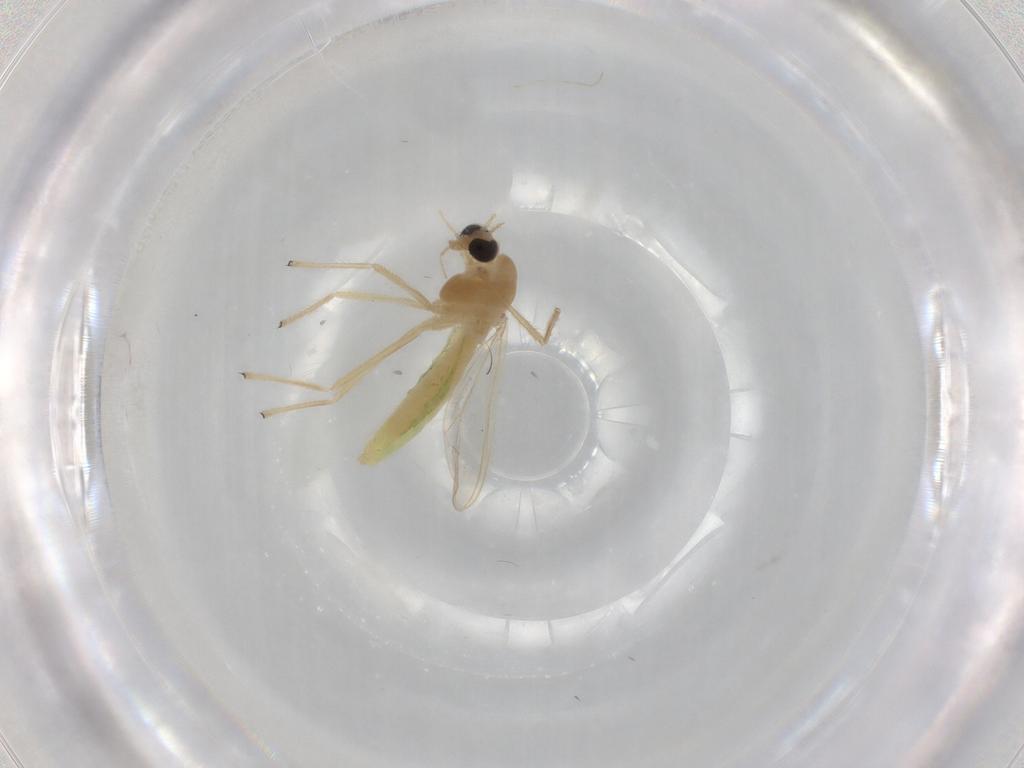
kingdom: Animalia
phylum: Arthropoda
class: Insecta
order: Diptera
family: Chironomidae
